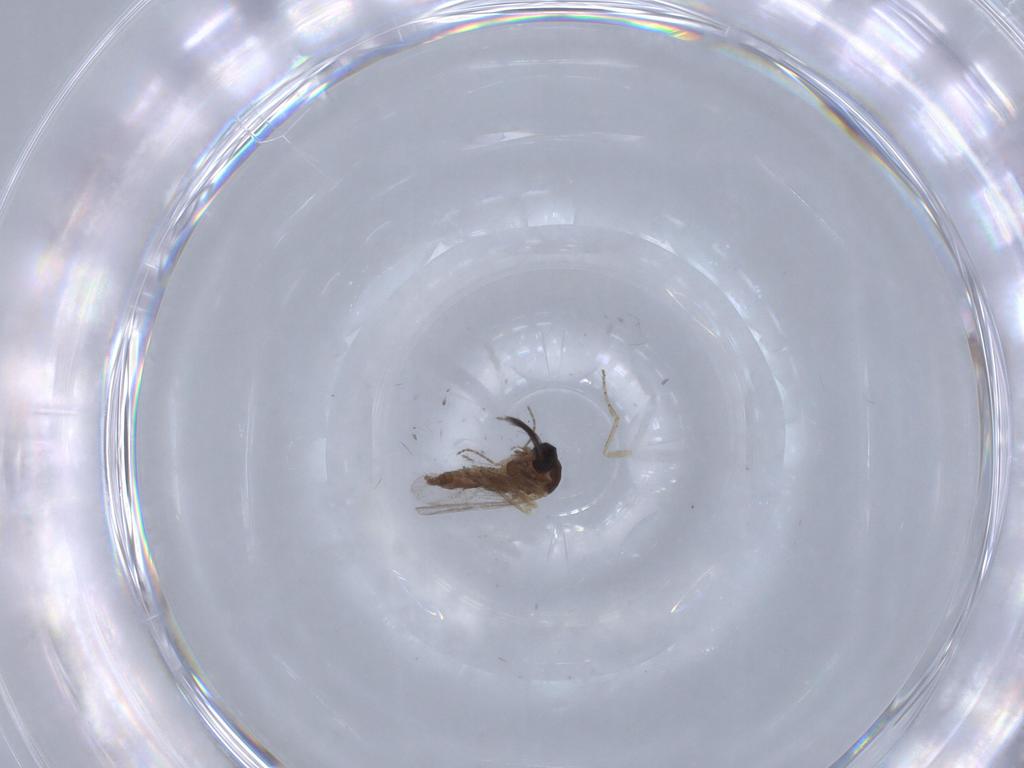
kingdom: Animalia
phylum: Arthropoda
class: Insecta
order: Diptera
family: Ceratopogonidae
